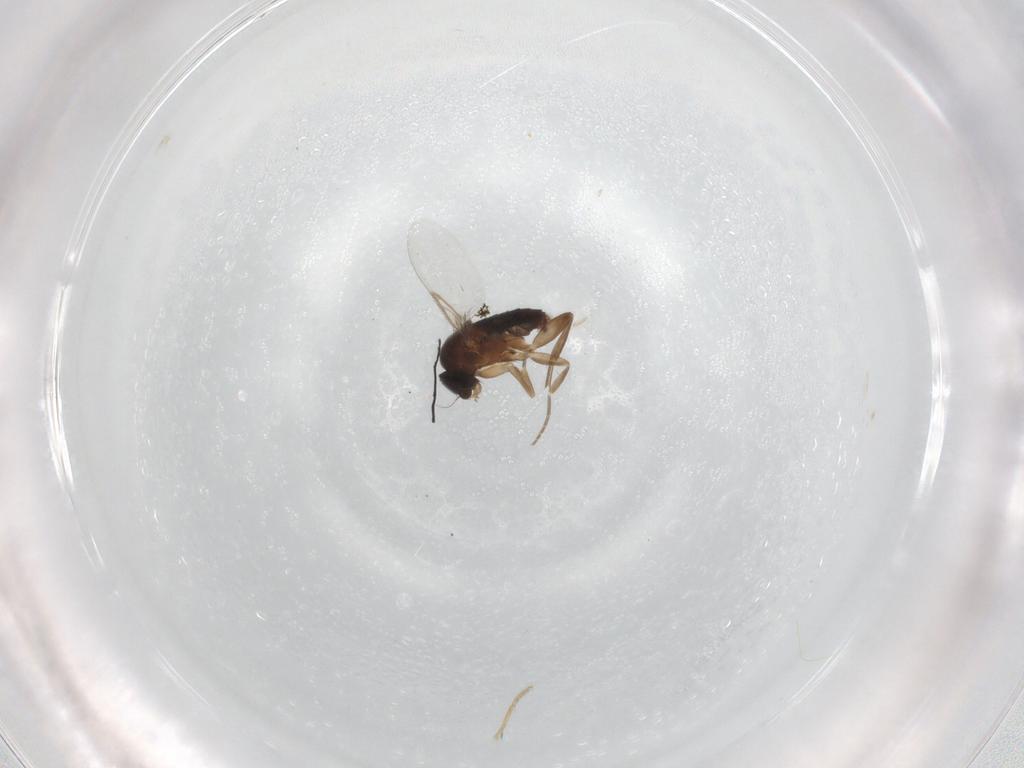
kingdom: Animalia
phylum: Arthropoda
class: Insecta
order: Diptera
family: Phoridae
